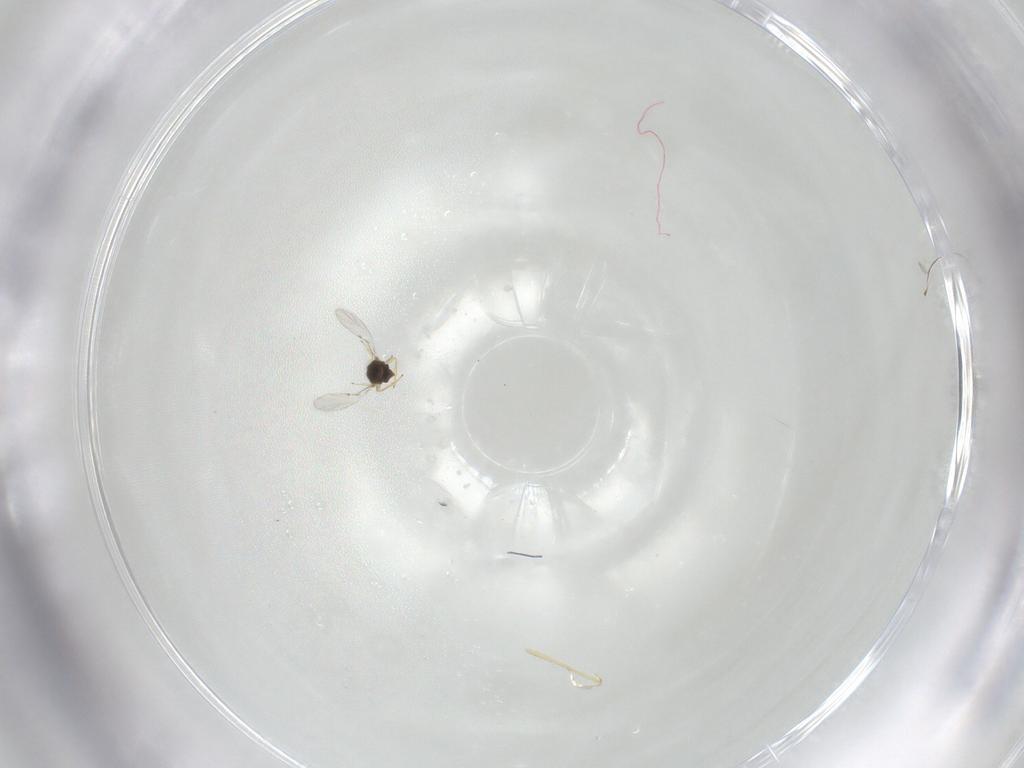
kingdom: Animalia
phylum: Arthropoda
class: Insecta
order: Hymenoptera
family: Encyrtidae
